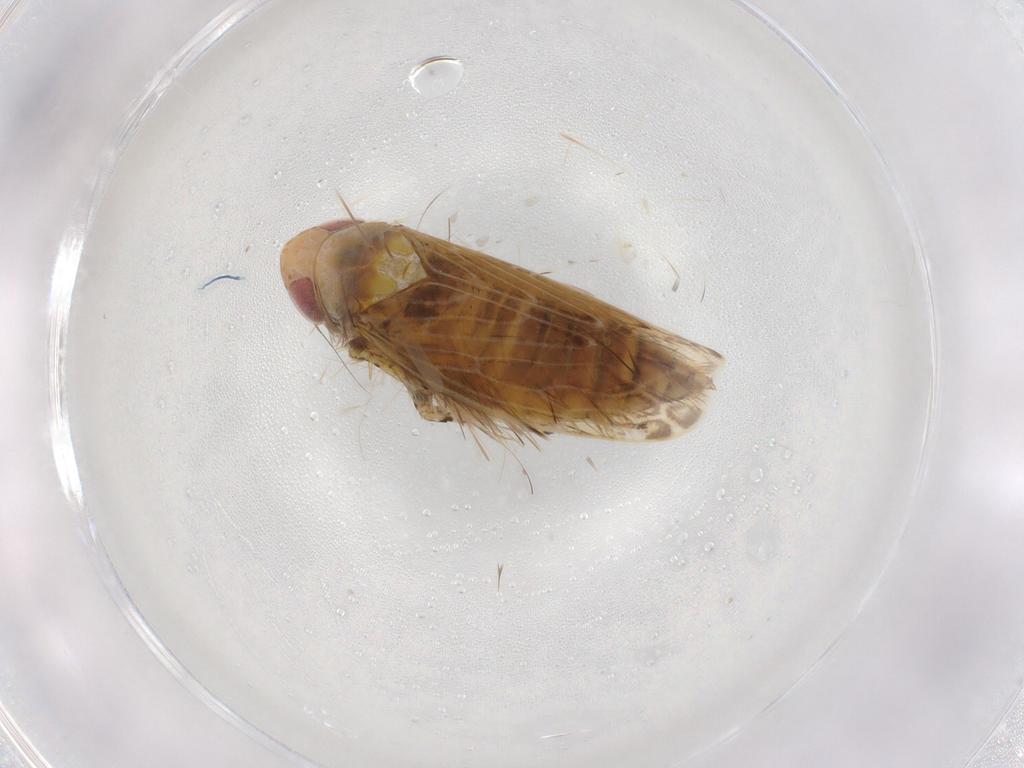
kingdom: Animalia
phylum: Arthropoda
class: Insecta
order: Hemiptera
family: Cicadellidae
